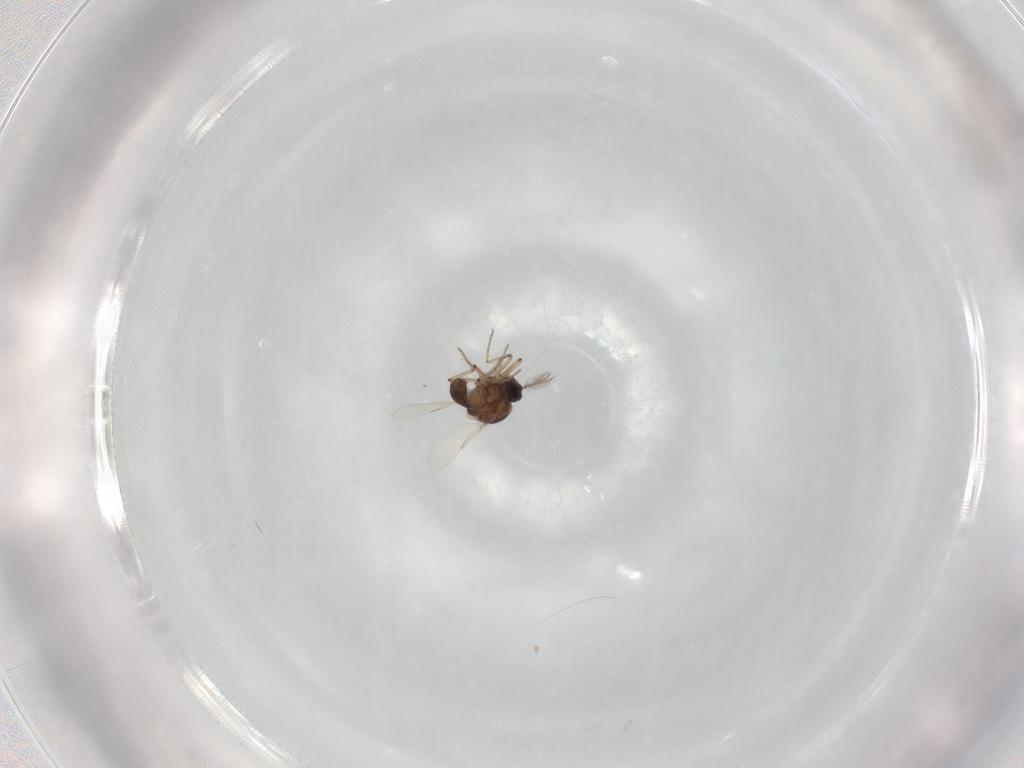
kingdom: Animalia
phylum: Arthropoda
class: Insecta
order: Diptera
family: Ceratopogonidae
